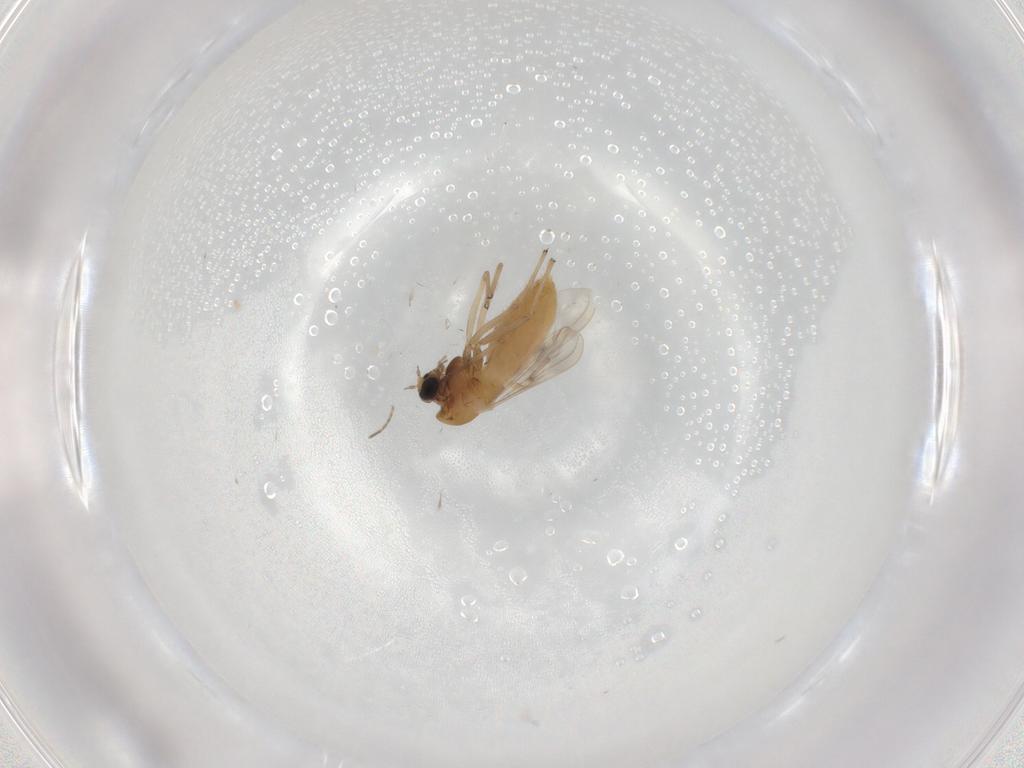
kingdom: Animalia
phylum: Arthropoda
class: Insecta
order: Diptera
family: Chironomidae
